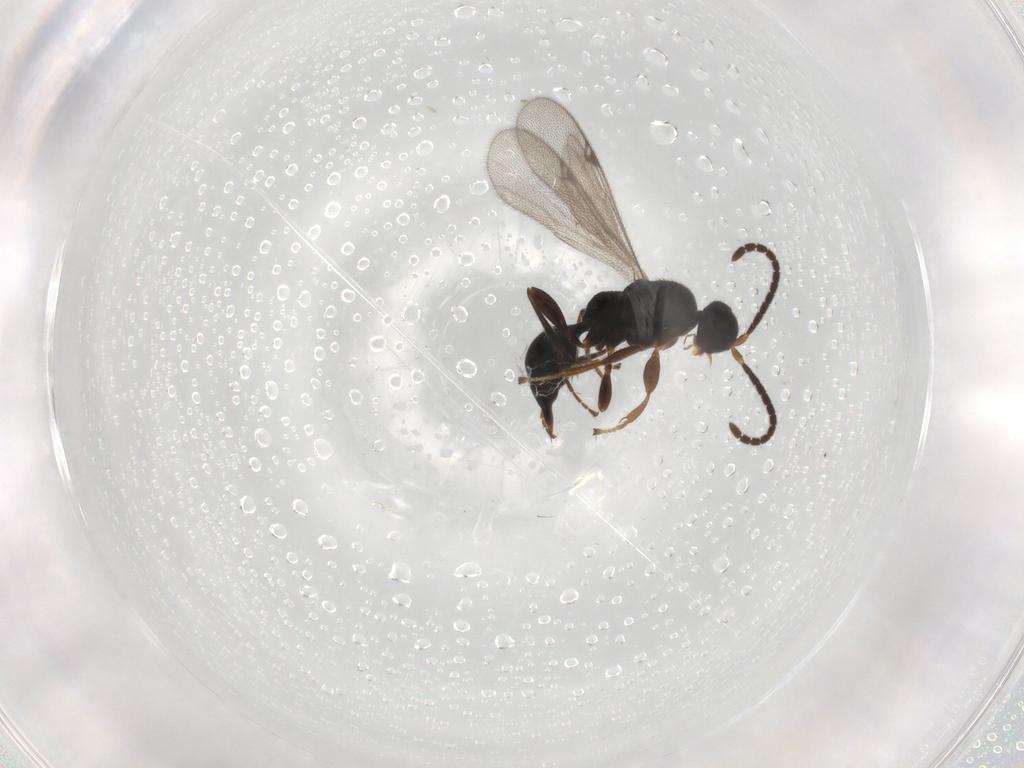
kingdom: Animalia
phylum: Arthropoda
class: Insecta
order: Hymenoptera
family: Proctotrupidae
